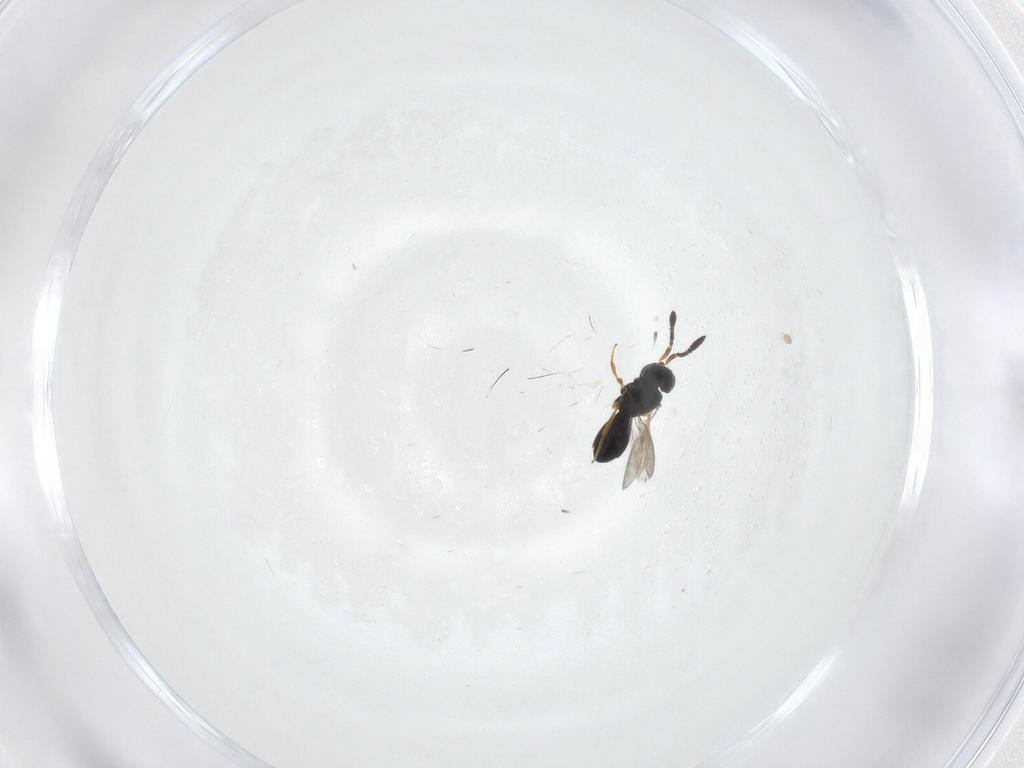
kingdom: Animalia
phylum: Arthropoda
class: Insecta
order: Hymenoptera
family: Scelionidae
